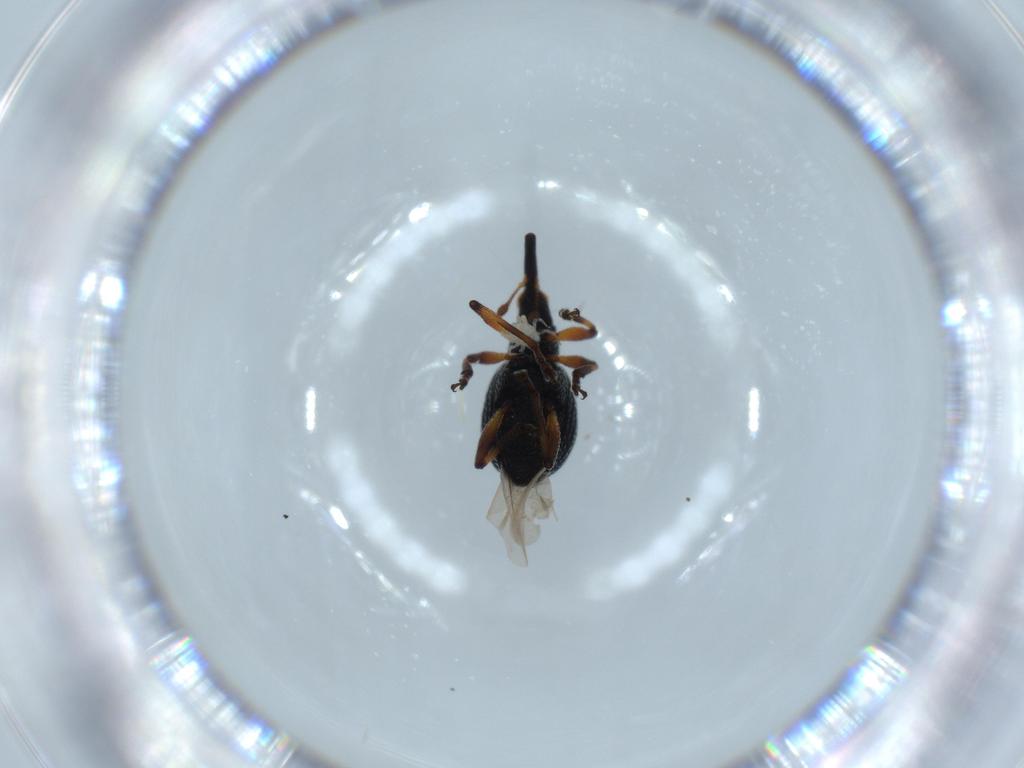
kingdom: Animalia
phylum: Arthropoda
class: Insecta
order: Coleoptera
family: Brentidae
